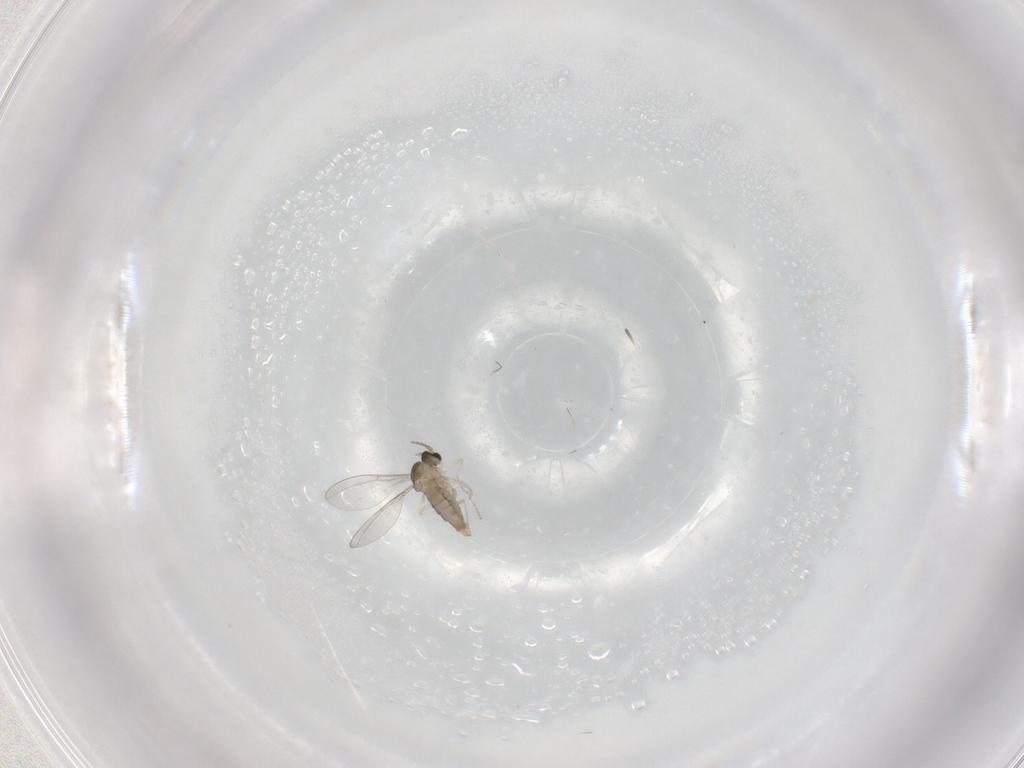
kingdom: Animalia
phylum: Arthropoda
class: Insecta
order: Diptera
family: Cecidomyiidae
